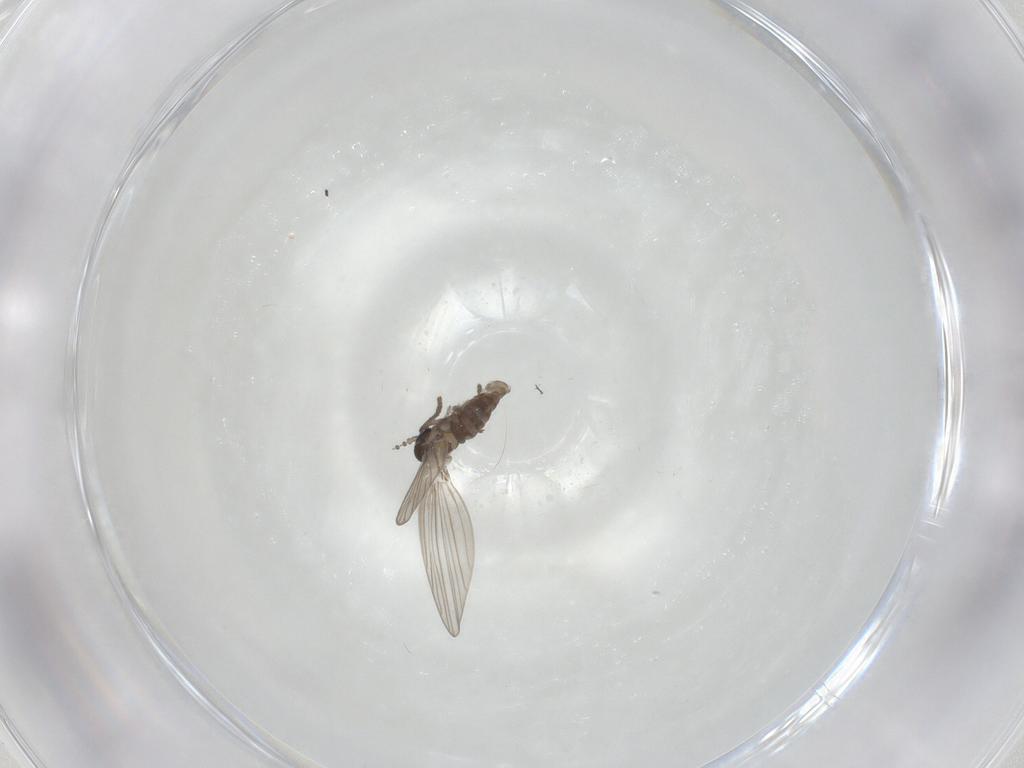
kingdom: Animalia
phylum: Arthropoda
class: Insecta
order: Diptera
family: Psychodidae
